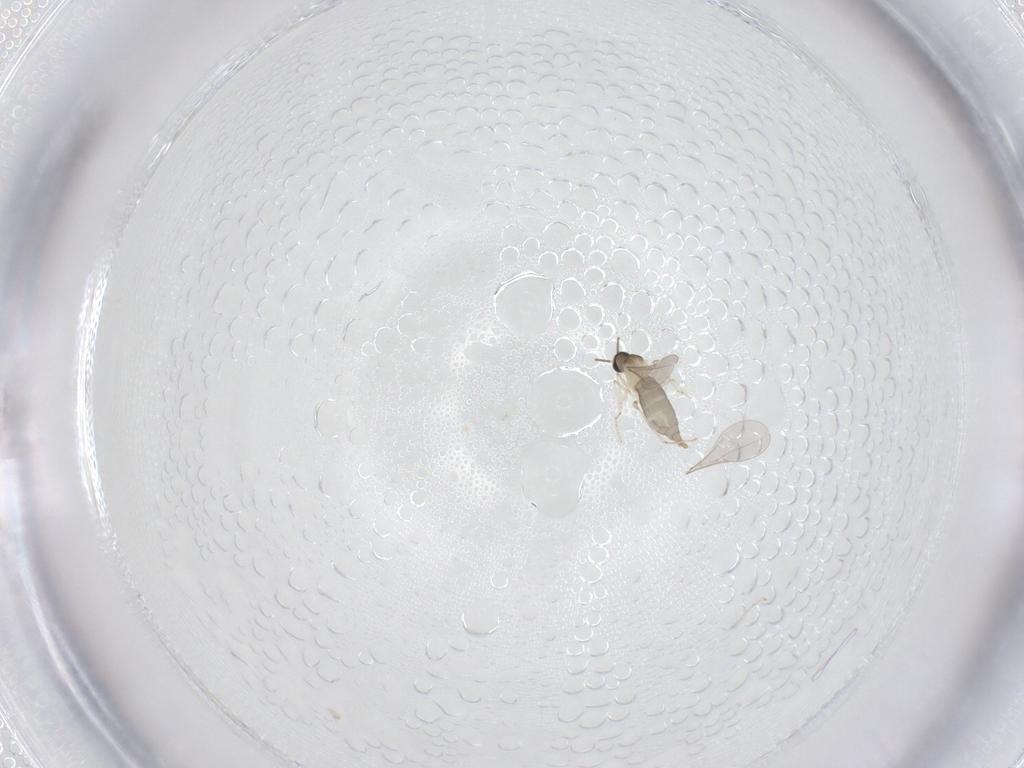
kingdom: Animalia
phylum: Arthropoda
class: Insecta
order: Diptera
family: Cecidomyiidae
